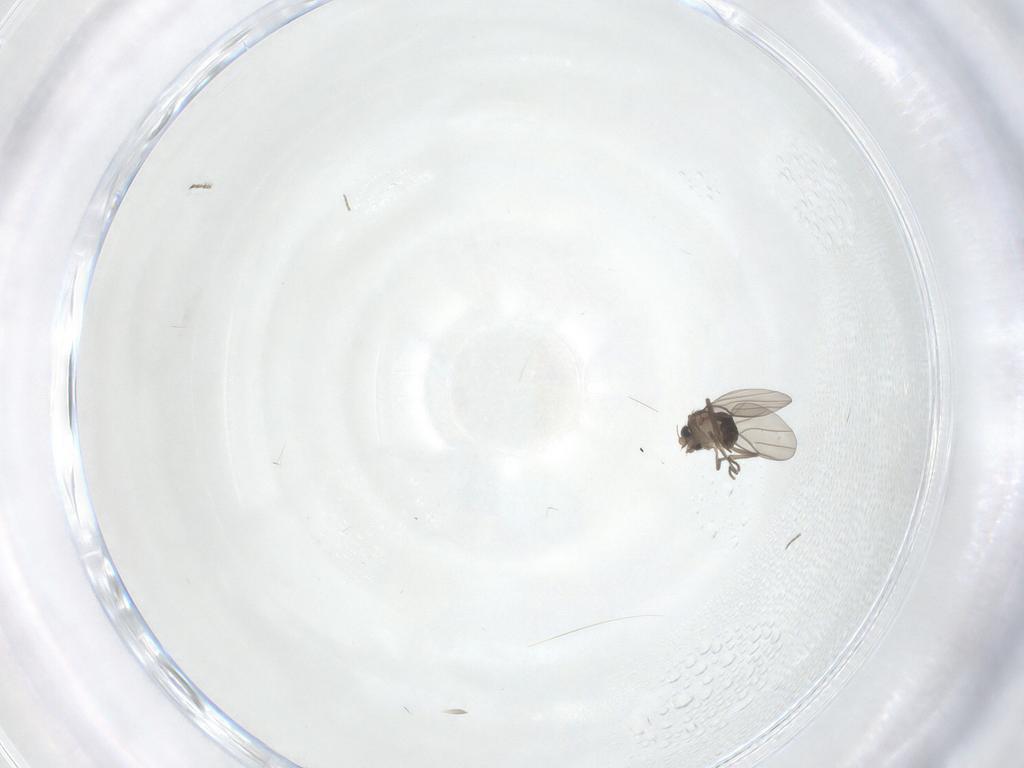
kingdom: Animalia
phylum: Arthropoda
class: Insecta
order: Diptera
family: Phoridae
